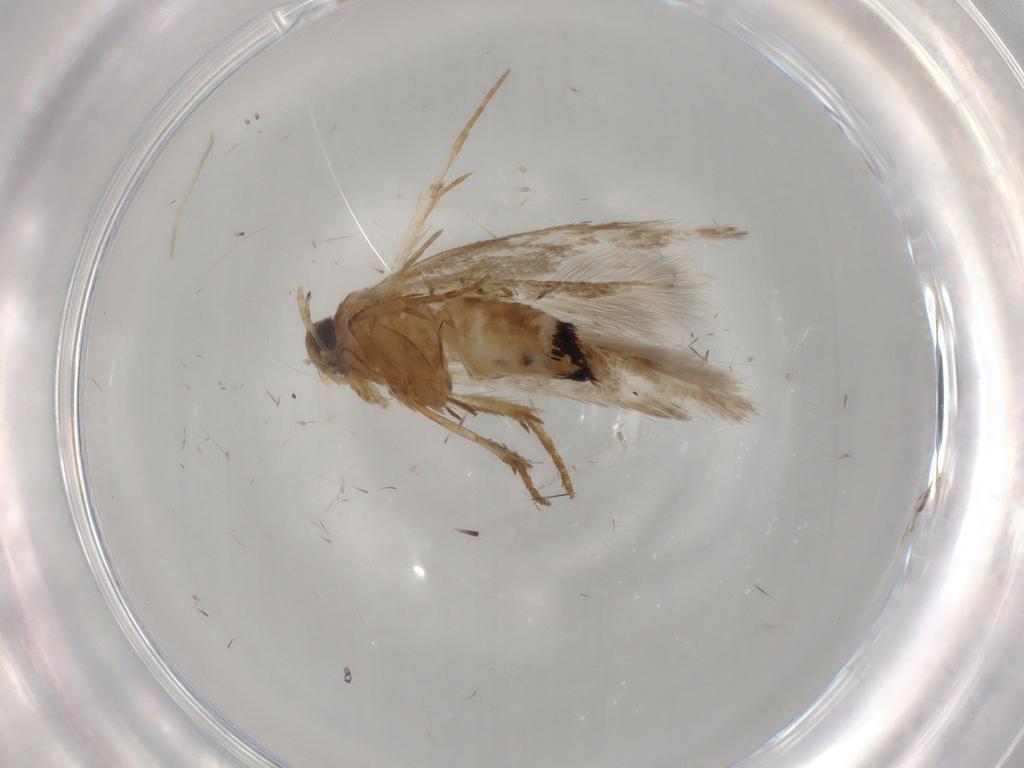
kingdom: Animalia
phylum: Arthropoda
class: Insecta
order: Lepidoptera
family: Cosmopterigidae
